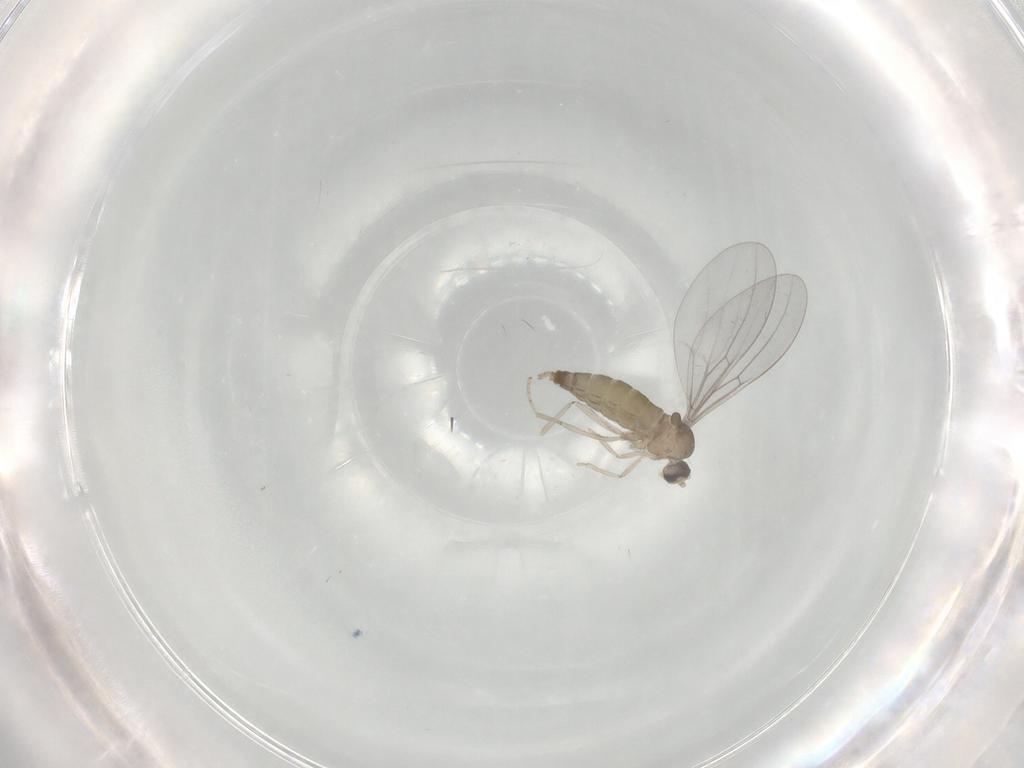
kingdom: Animalia
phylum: Arthropoda
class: Insecta
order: Diptera
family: Cecidomyiidae
